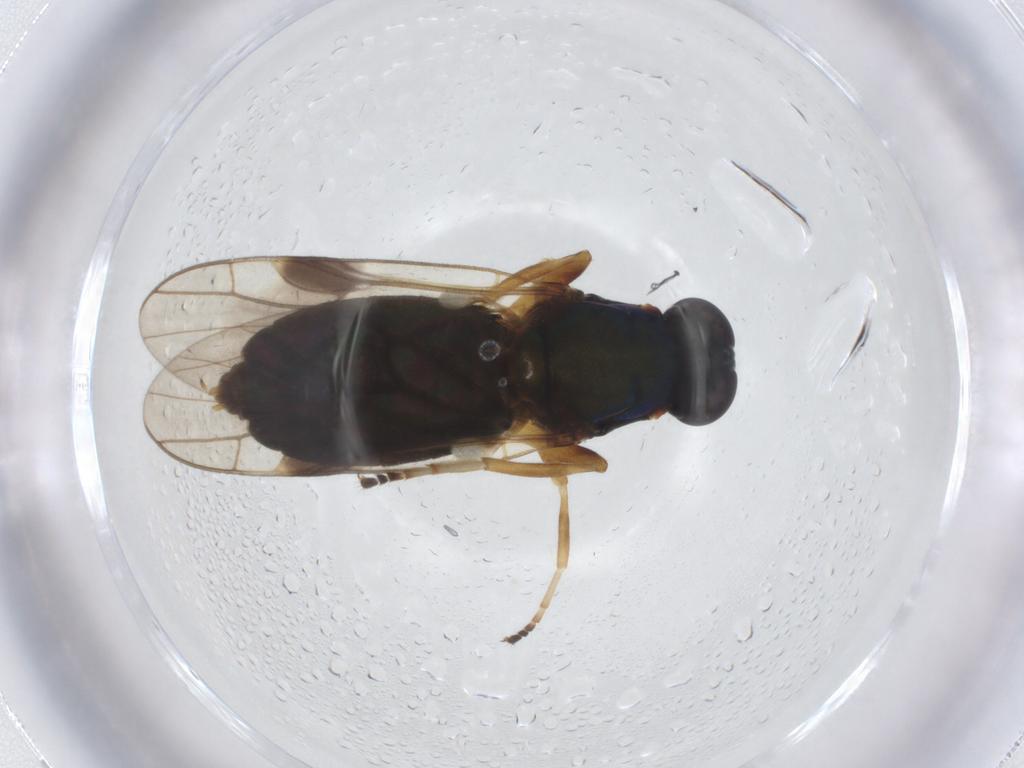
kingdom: Animalia
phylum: Arthropoda
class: Insecta
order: Diptera
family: Stratiomyidae
